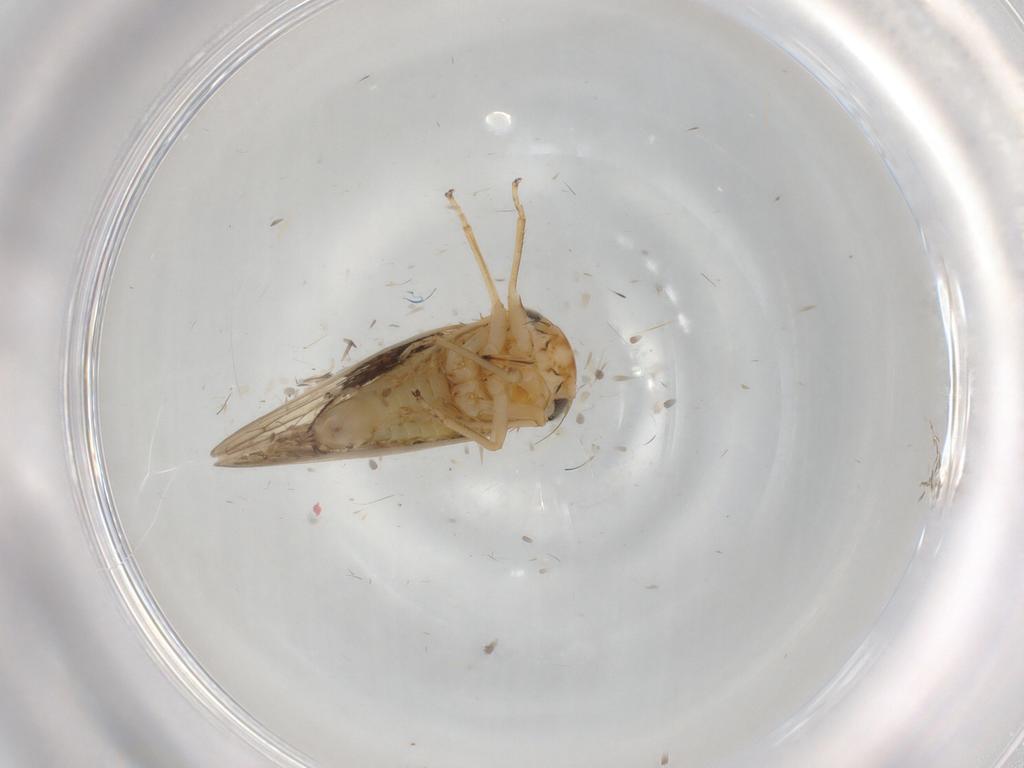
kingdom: Animalia
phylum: Arthropoda
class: Insecta
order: Hemiptera
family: Cicadellidae
